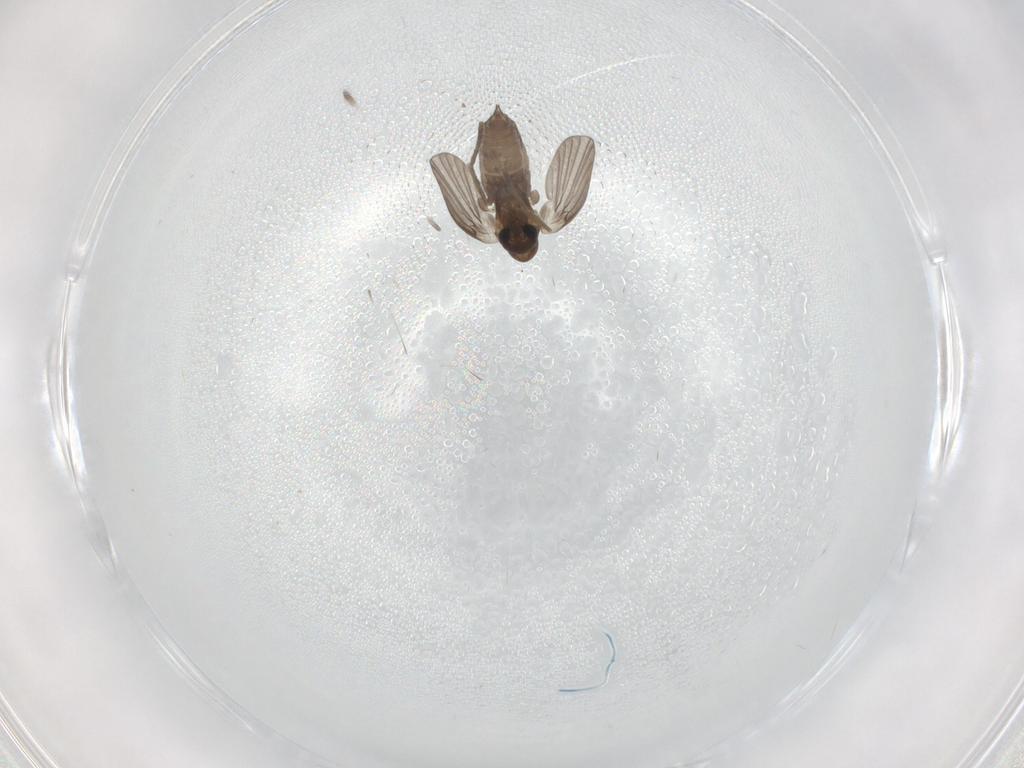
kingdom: Animalia
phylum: Arthropoda
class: Insecta
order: Diptera
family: Psychodidae
